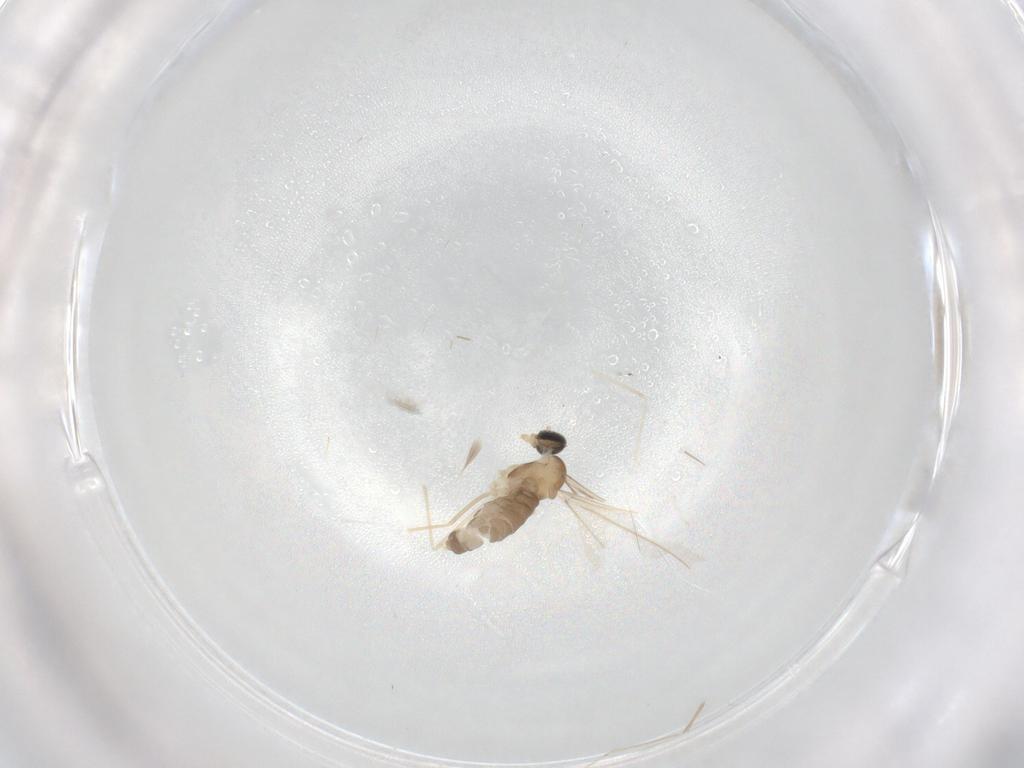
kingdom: Animalia
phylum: Arthropoda
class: Insecta
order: Diptera
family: Cecidomyiidae
